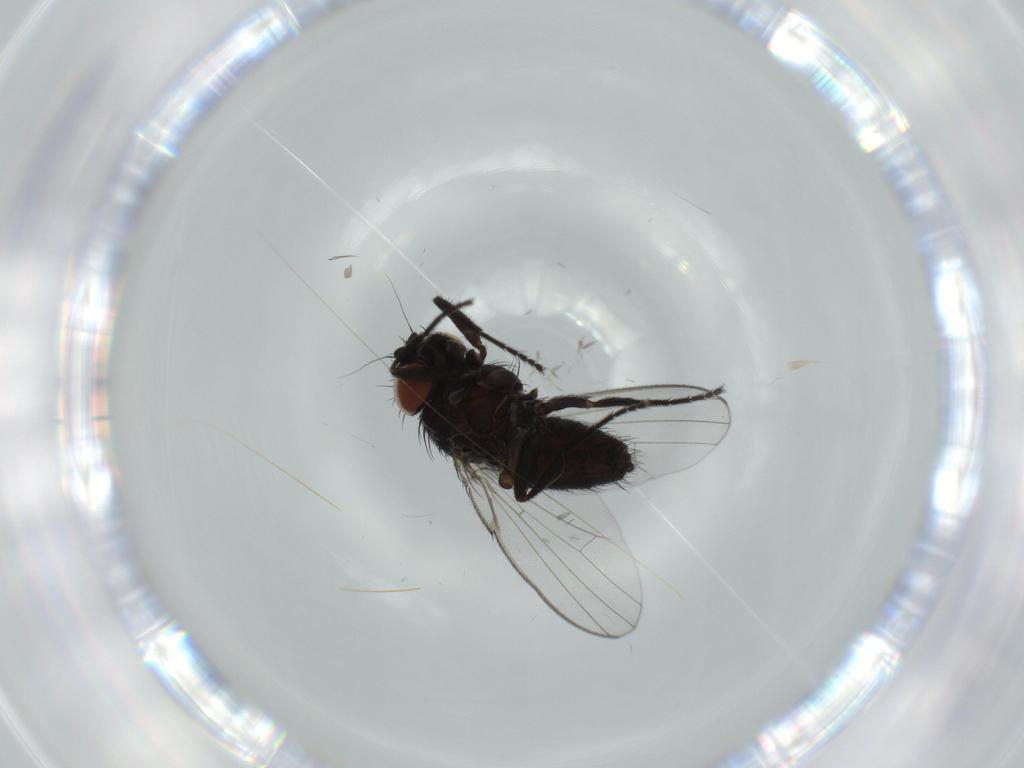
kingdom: Animalia
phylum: Arthropoda
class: Insecta
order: Diptera
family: Milichiidae
